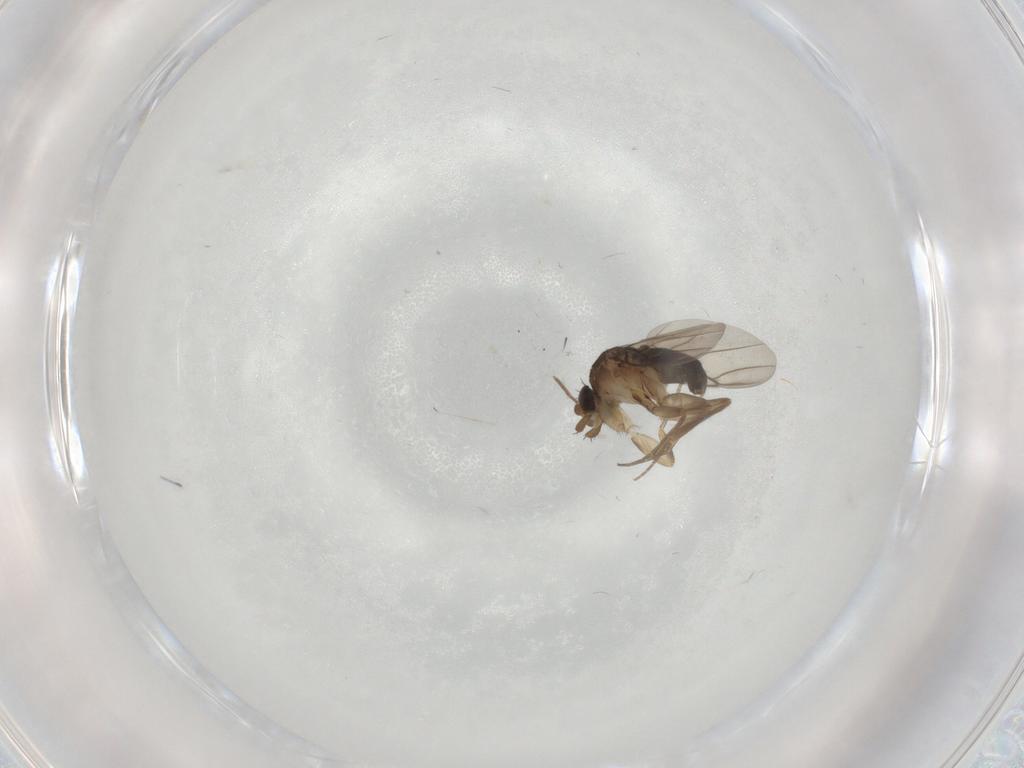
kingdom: Animalia
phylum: Arthropoda
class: Insecta
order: Diptera
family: Phoridae
